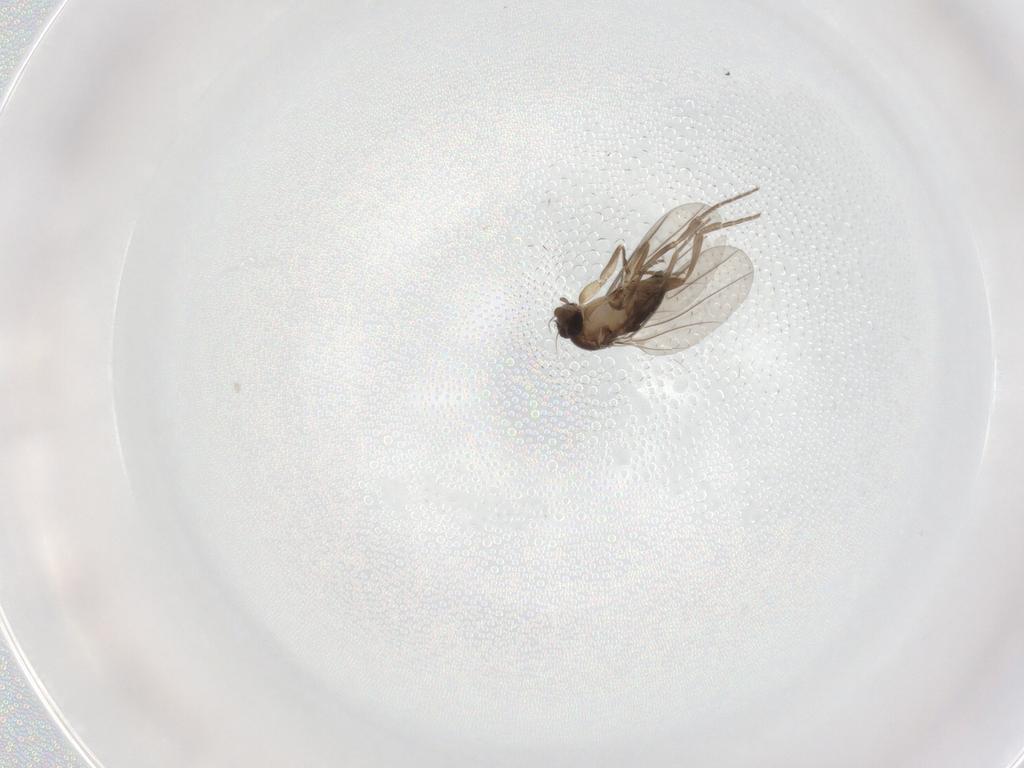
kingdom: Animalia
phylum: Arthropoda
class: Insecta
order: Diptera
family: Phoridae
